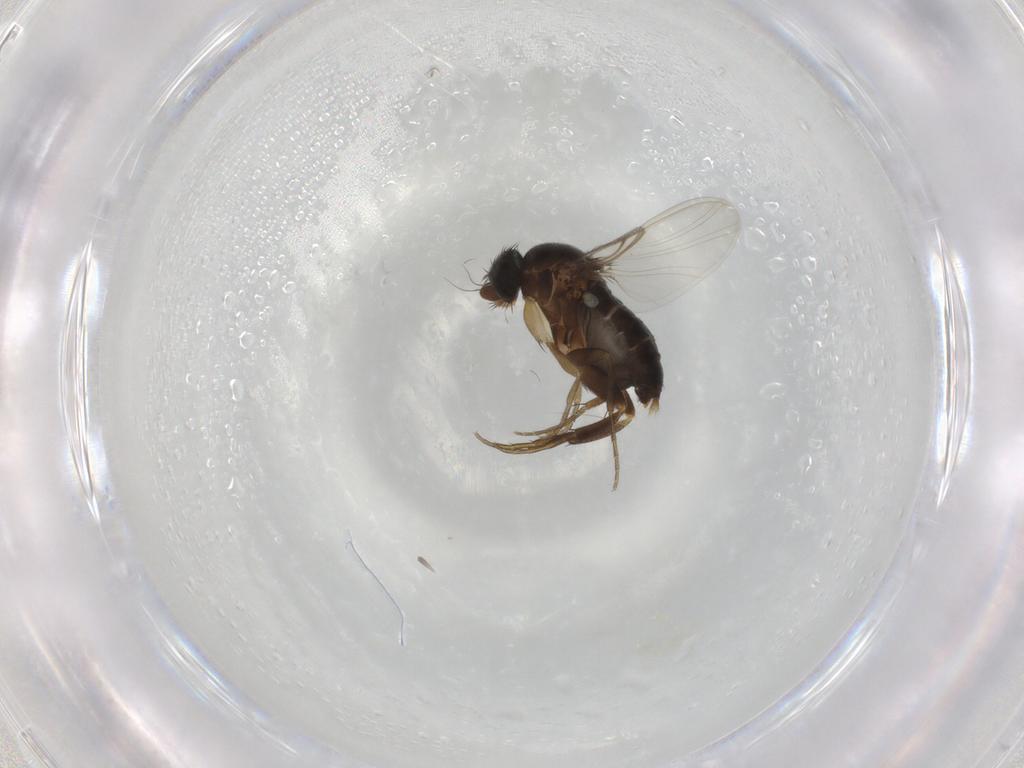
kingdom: Animalia
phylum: Arthropoda
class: Insecta
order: Diptera
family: Phoridae
